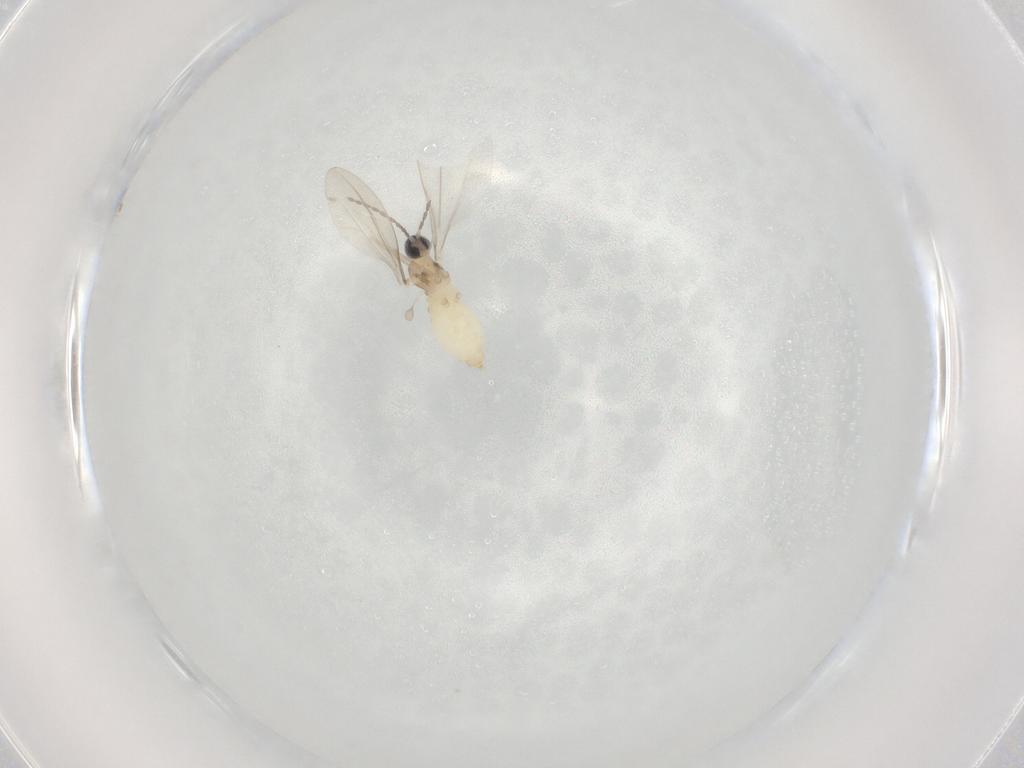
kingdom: Animalia
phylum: Arthropoda
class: Insecta
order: Diptera
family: Cecidomyiidae
